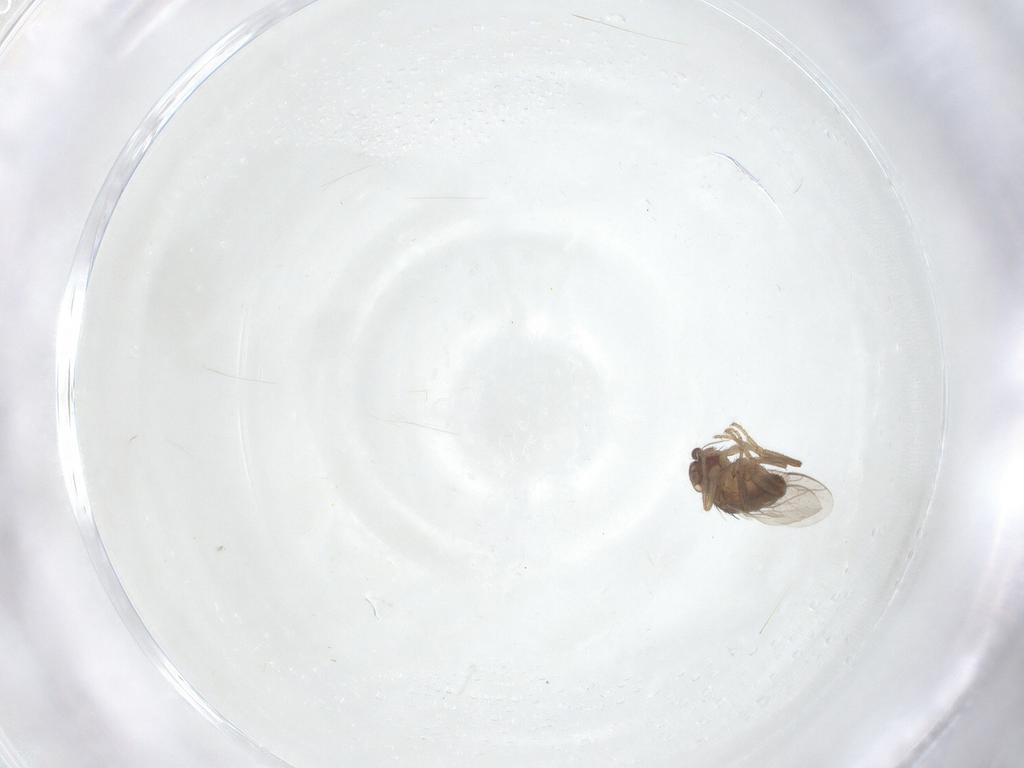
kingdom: Animalia
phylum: Arthropoda
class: Insecta
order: Diptera
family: Sphaeroceridae
